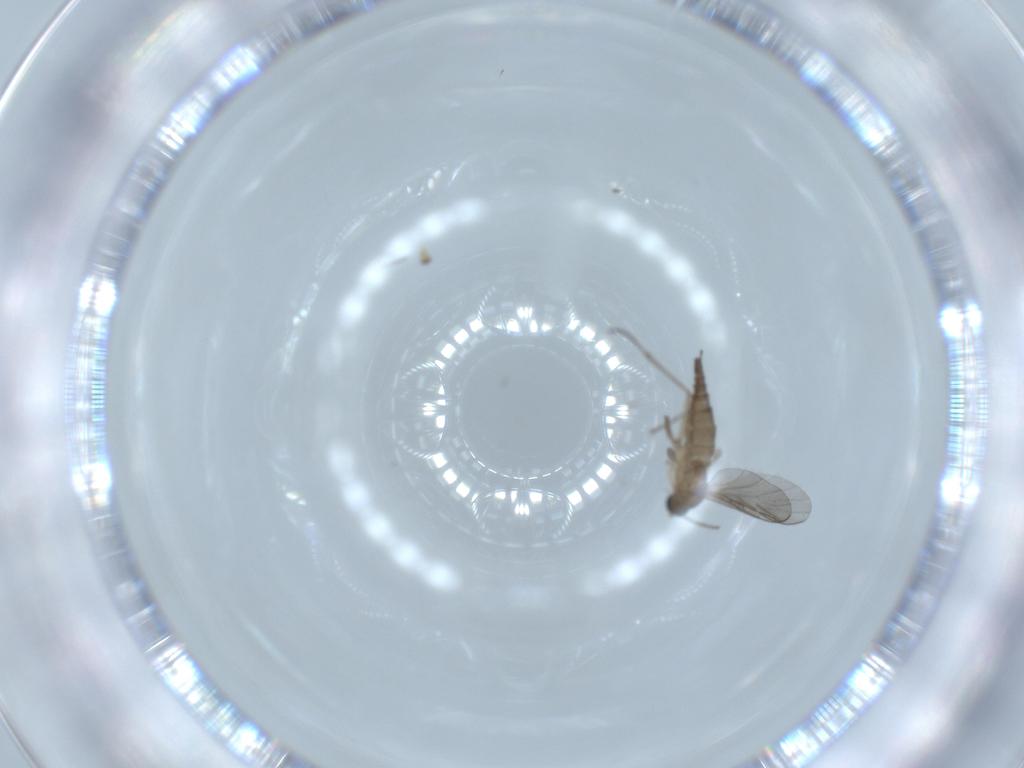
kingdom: Animalia
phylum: Arthropoda
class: Insecta
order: Diptera
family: Sciaridae
